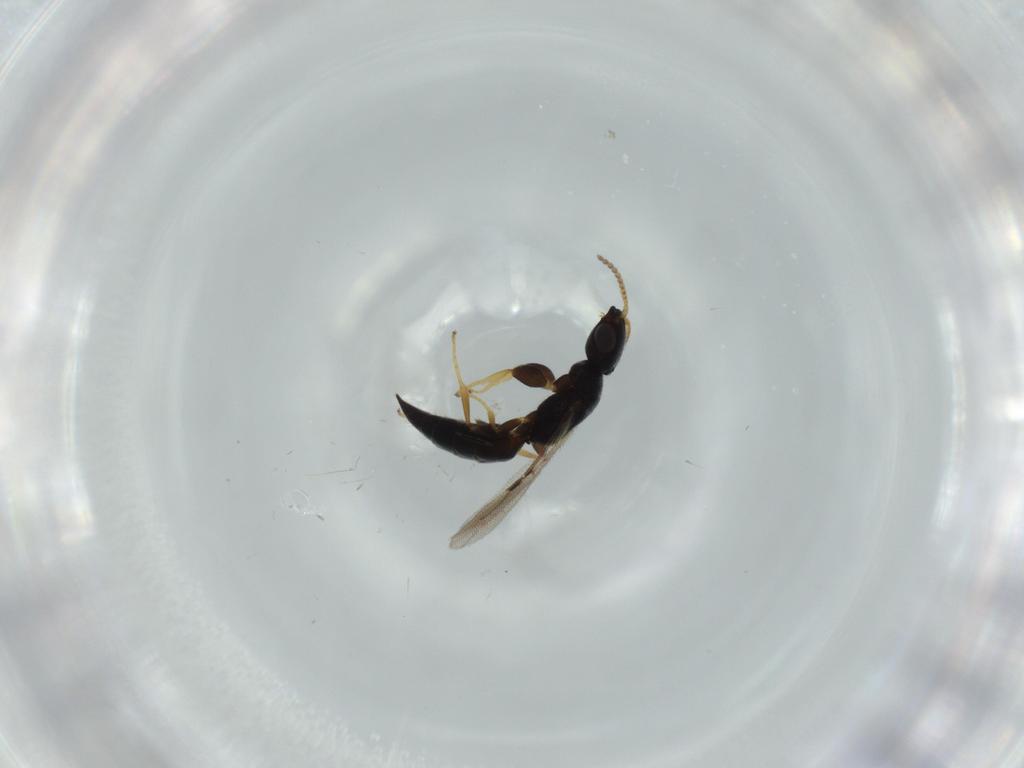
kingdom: Animalia
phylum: Arthropoda
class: Insecta
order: Hymenoptera
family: Bethylidae
